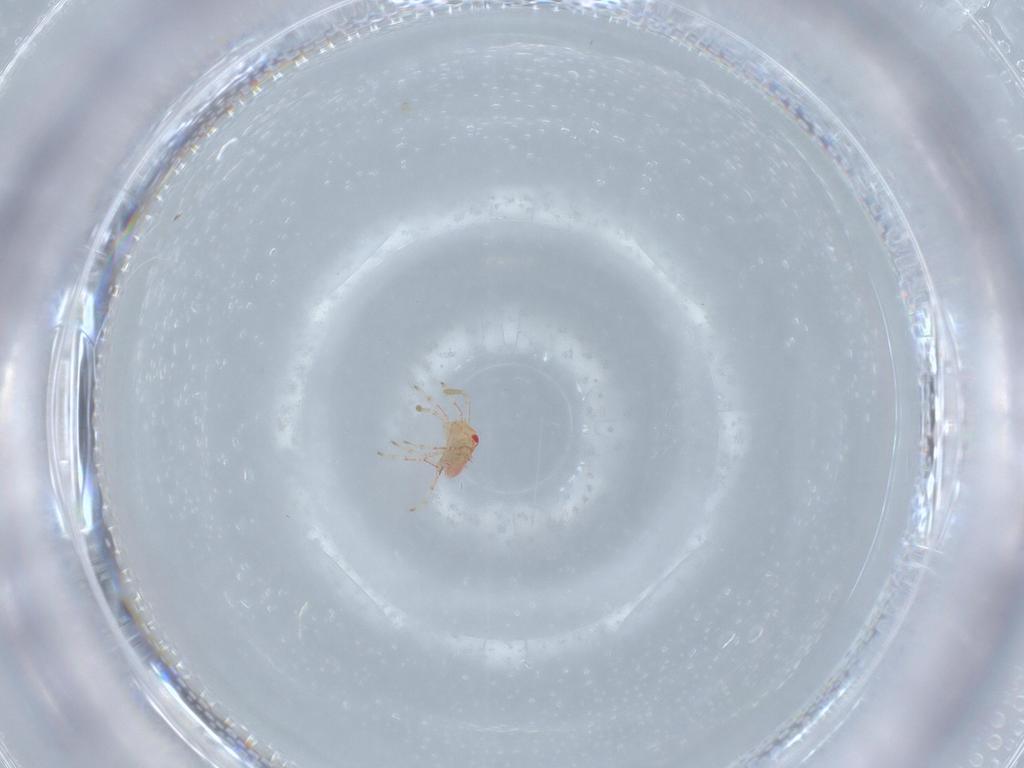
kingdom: Animalia
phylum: Arthropoda
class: Insecta
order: Hemiptera
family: Miridae
